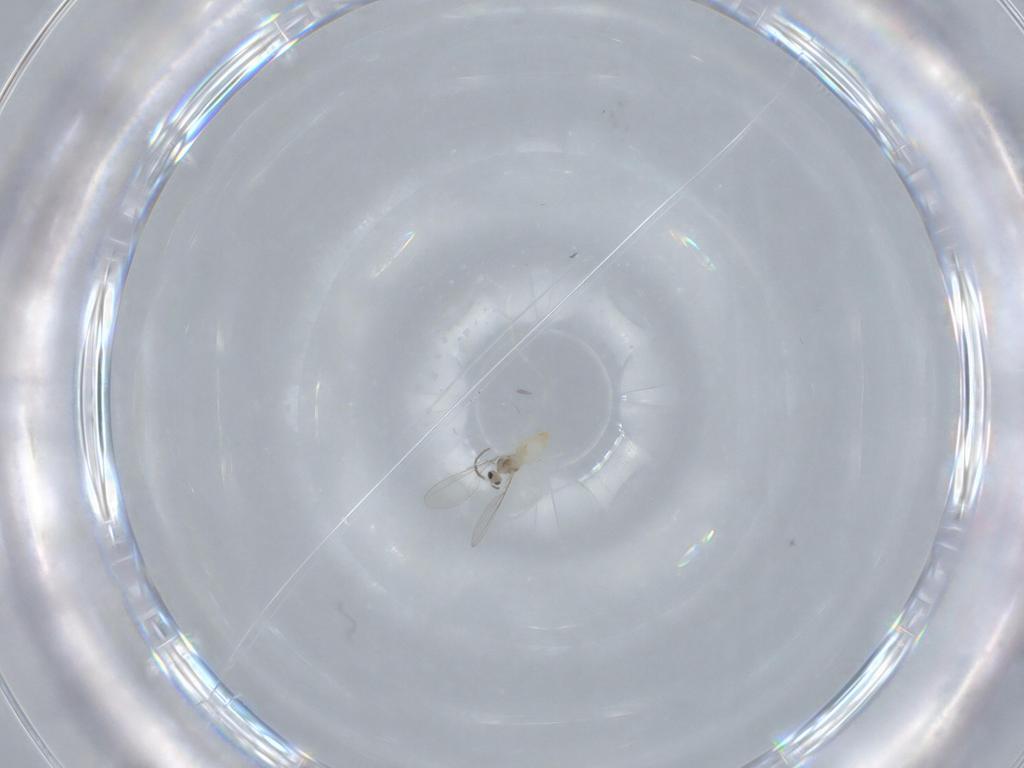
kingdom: Animalia
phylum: Arthropoda
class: Insecta
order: Diptera
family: Cecidomyiidae
